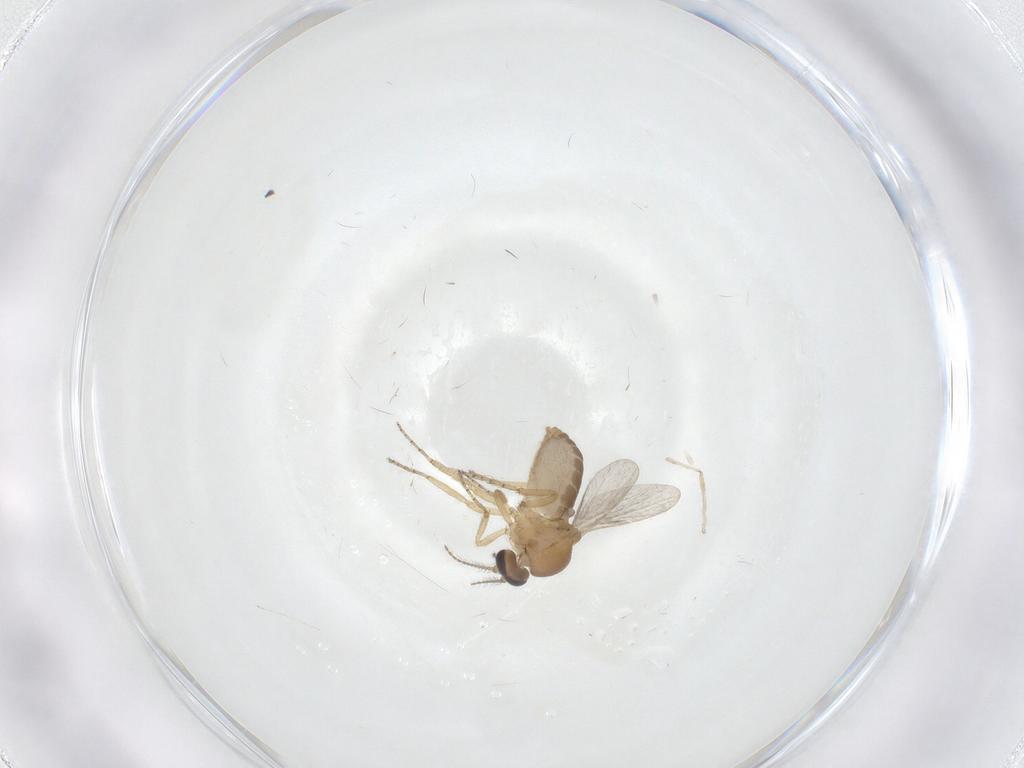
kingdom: Animalia
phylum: Arthropoda
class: Insecta
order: Diptera
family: Ceratopogonidae
